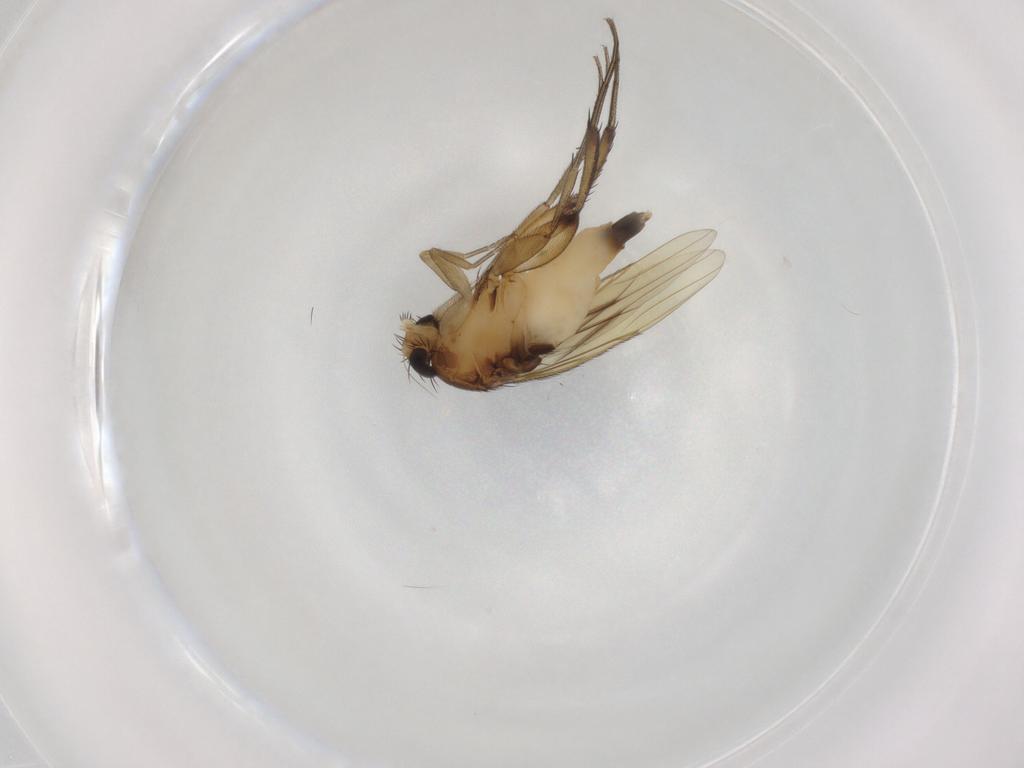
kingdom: Animalia
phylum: Arthropoda
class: Insecta
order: Diptera
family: Phoridae
